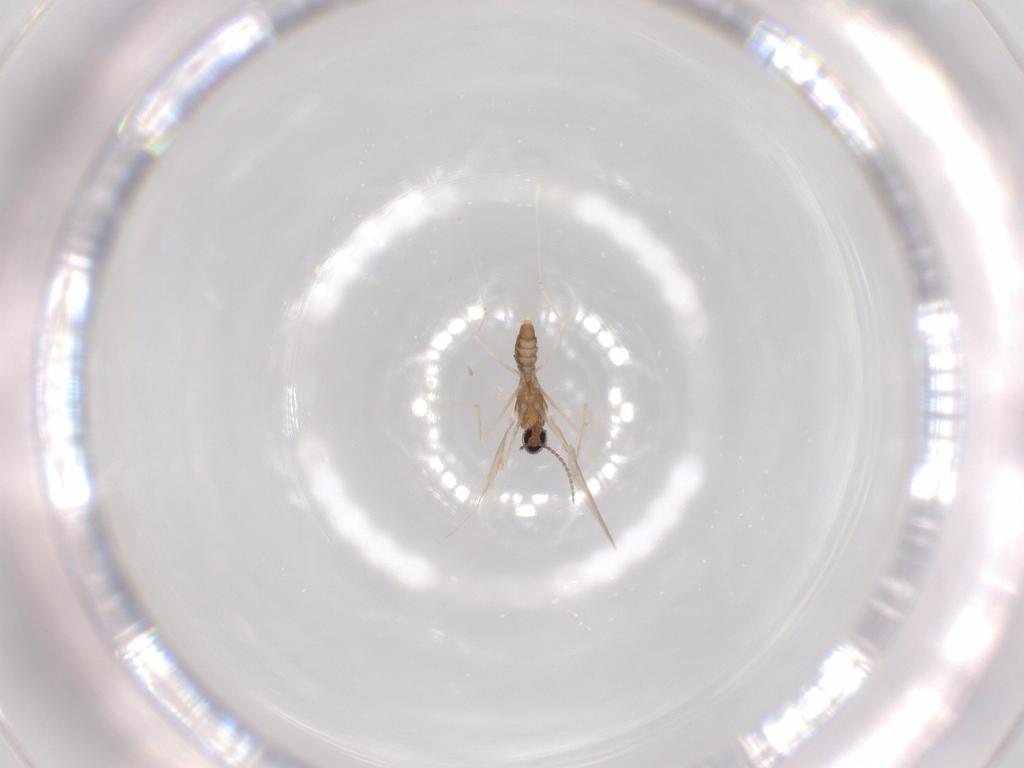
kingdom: Animalia
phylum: Arthropoda
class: Insecta
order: Diptera
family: Cecidomyiidae
